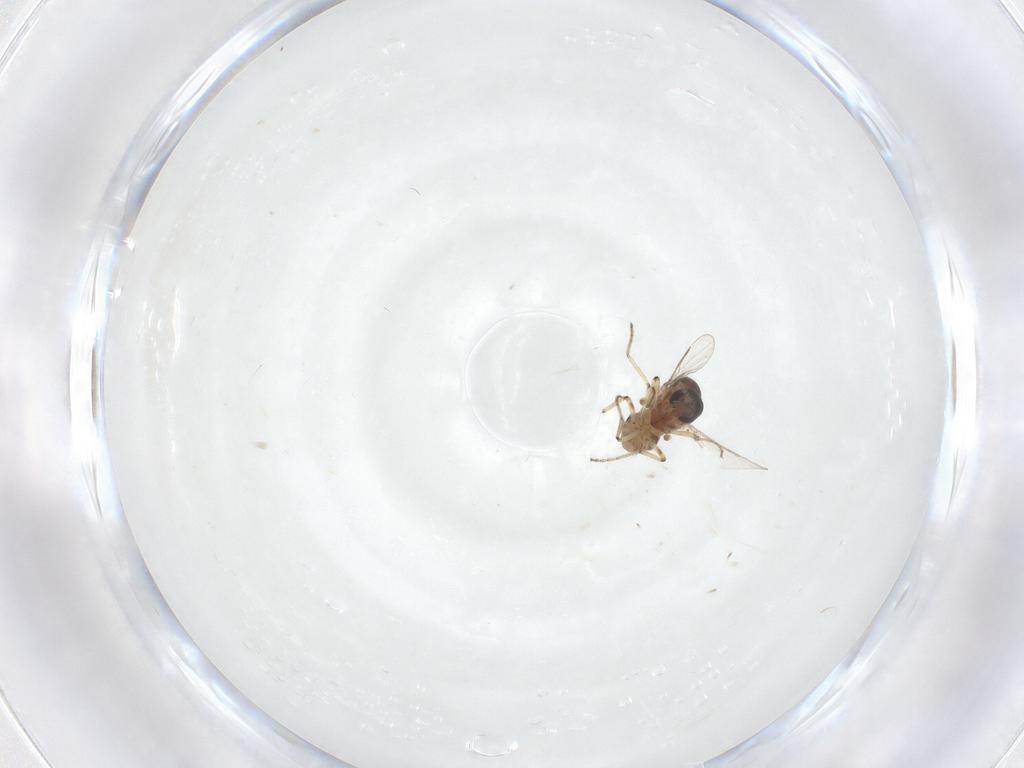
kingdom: Animalia
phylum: Arthropoda
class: Insecta
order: Diptera
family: Ceratopogonidae
